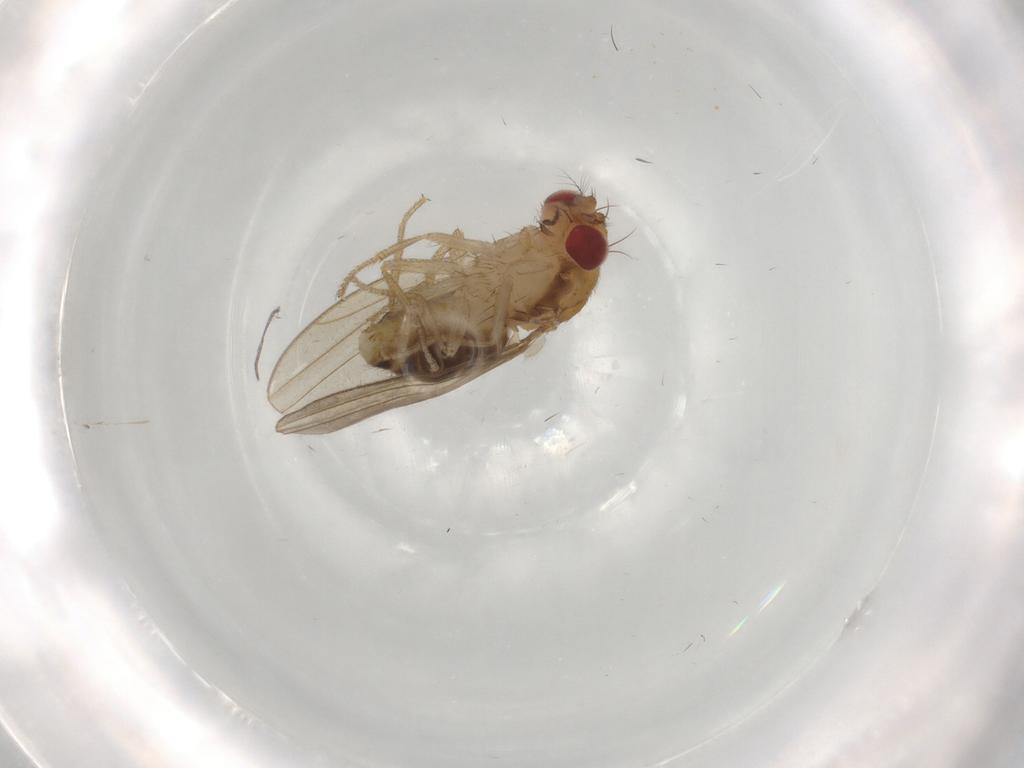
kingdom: Animalia
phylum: Arthropoda
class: Insecta
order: Diptera
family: Drosophilidae
